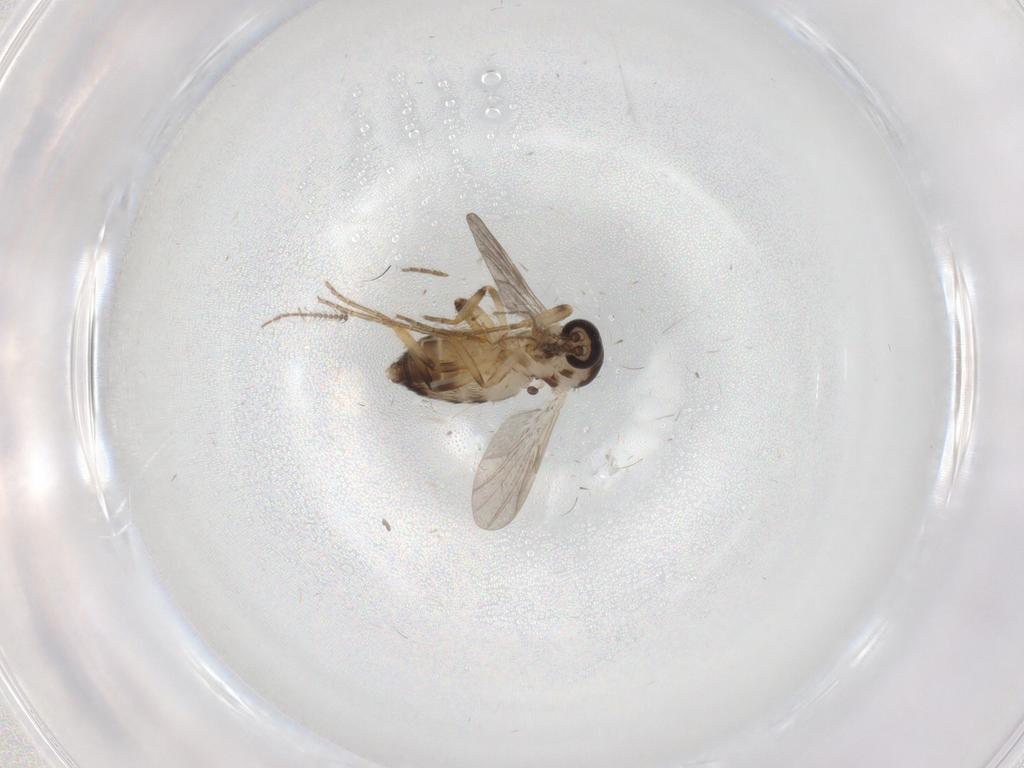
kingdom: Animalia
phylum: Arthropoda
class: Insecta
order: Diptera
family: Ceratopogonidae
